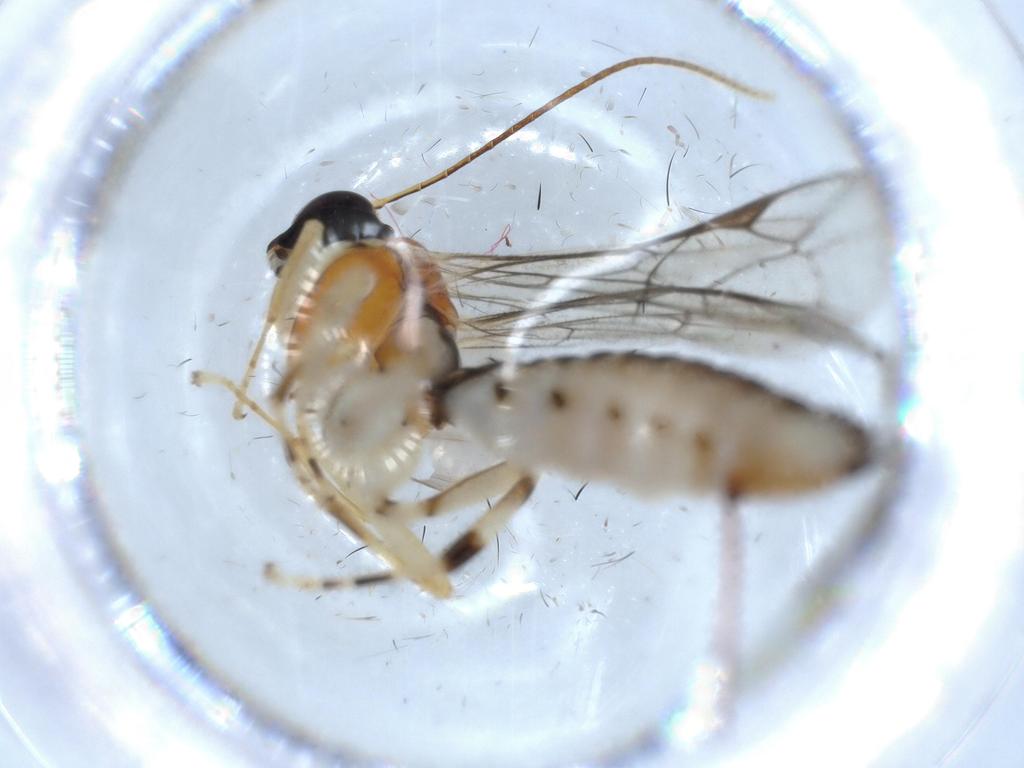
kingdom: Animalia
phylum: Arthropoda
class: Insecta
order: Hymenoptera
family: Ichneumonidae
